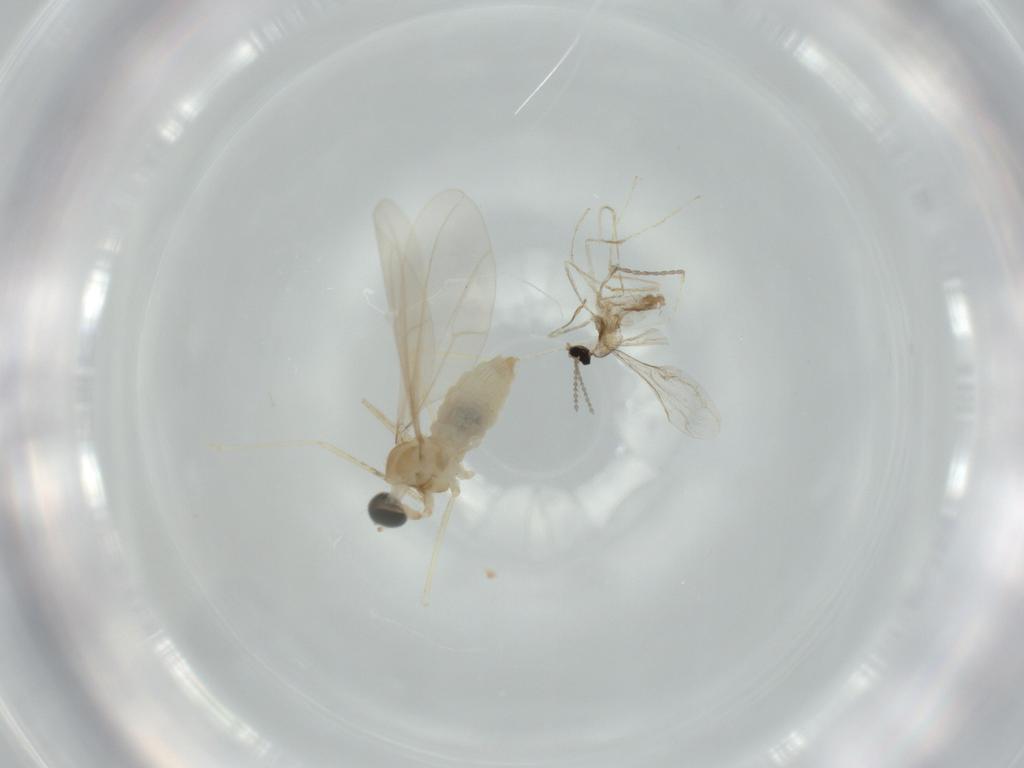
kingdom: Animalia
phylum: Arthropoda
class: Insecta
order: Diptera
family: Cecidomyiidae
